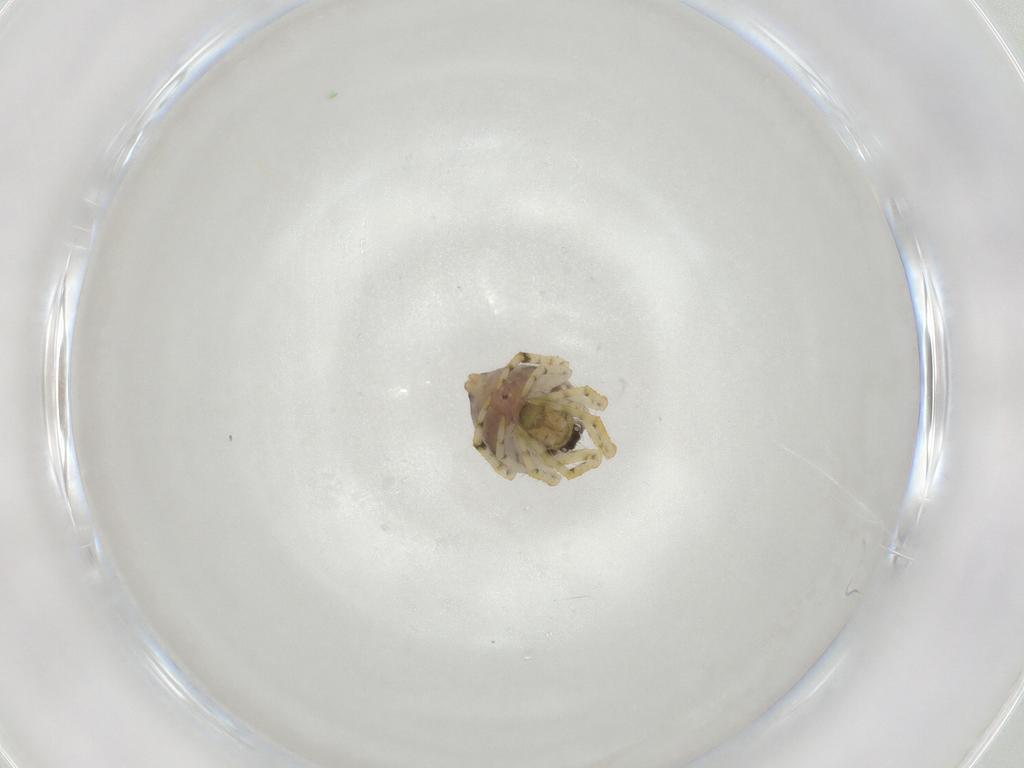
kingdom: Animalia
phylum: Arthropoda
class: Arachnida
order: Araneae
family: Theridiidae
